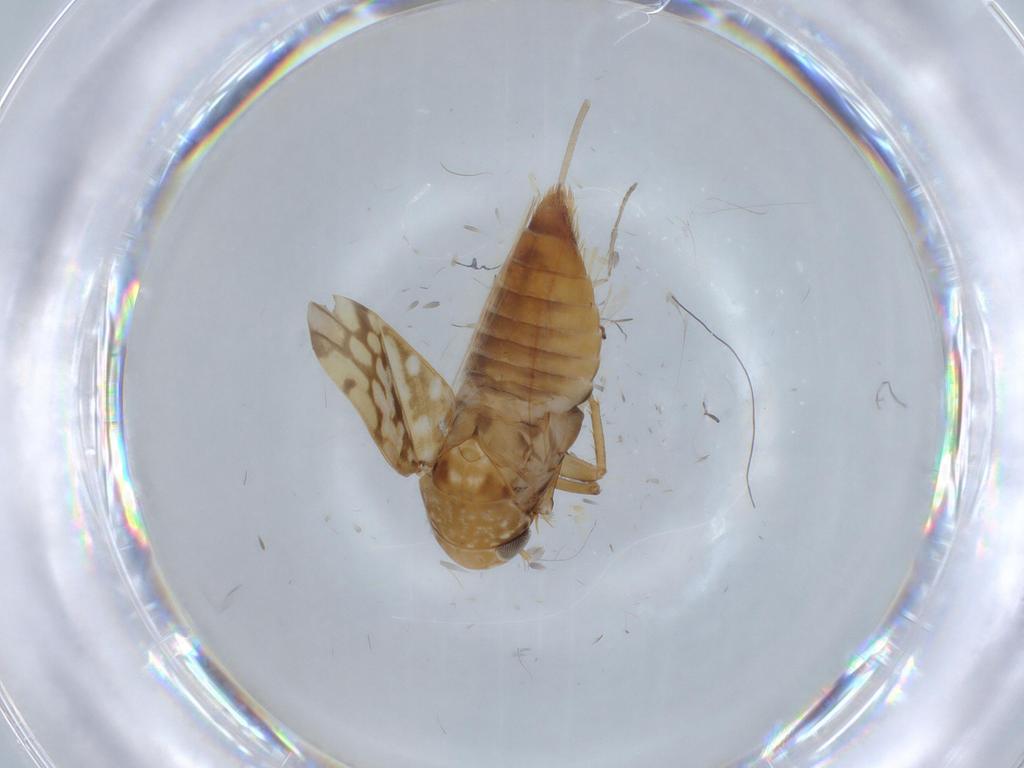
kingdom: Animalia
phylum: Arthropoda
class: Insecta
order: Hemiptera
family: Cicadellidae
